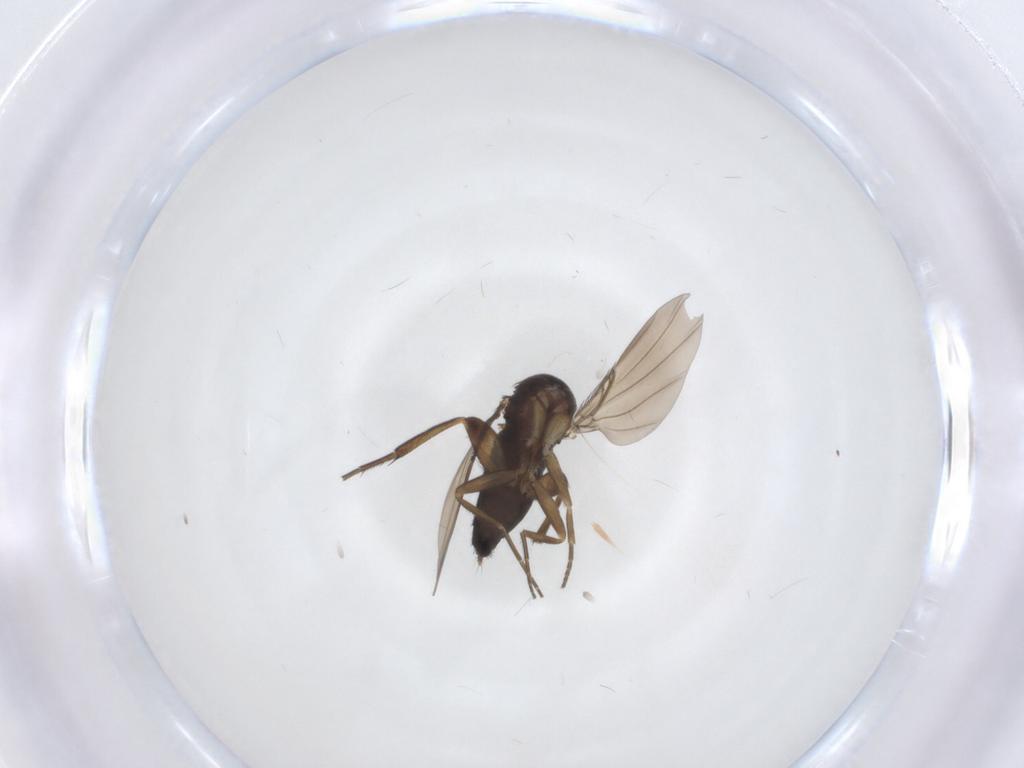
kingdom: Animalia
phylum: Arthropoda
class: Insecta
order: Diptera
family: Phoridae
